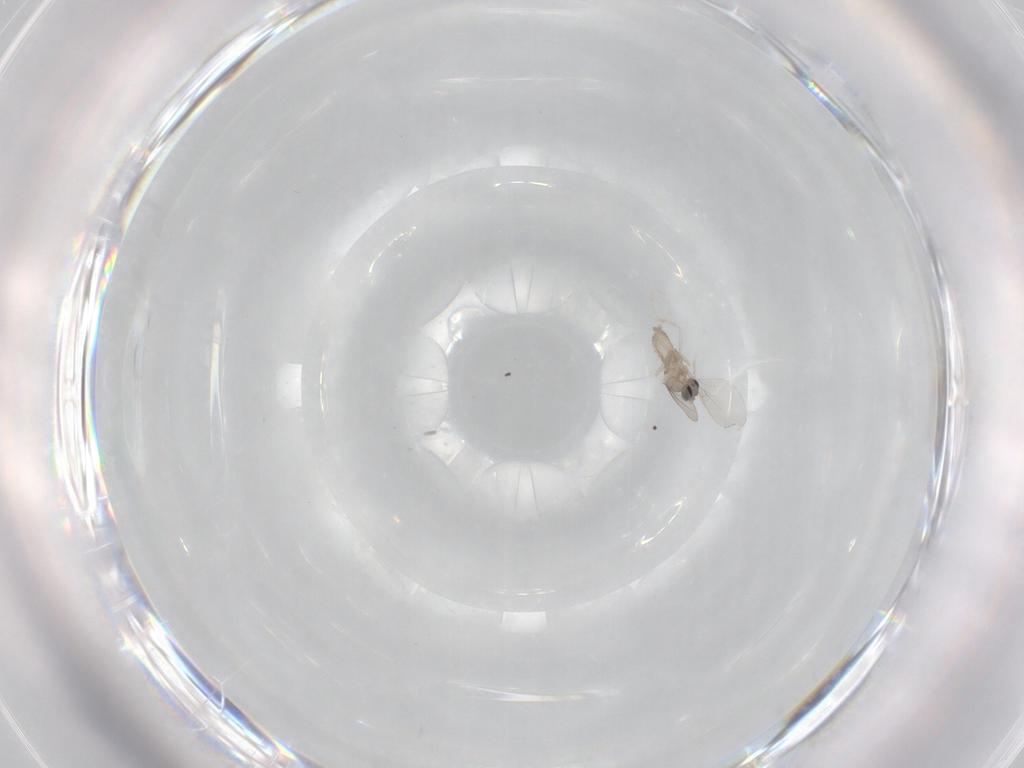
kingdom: Animalia
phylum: Arthropoda
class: Insecta
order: Diptera
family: Cecidomyiidae
